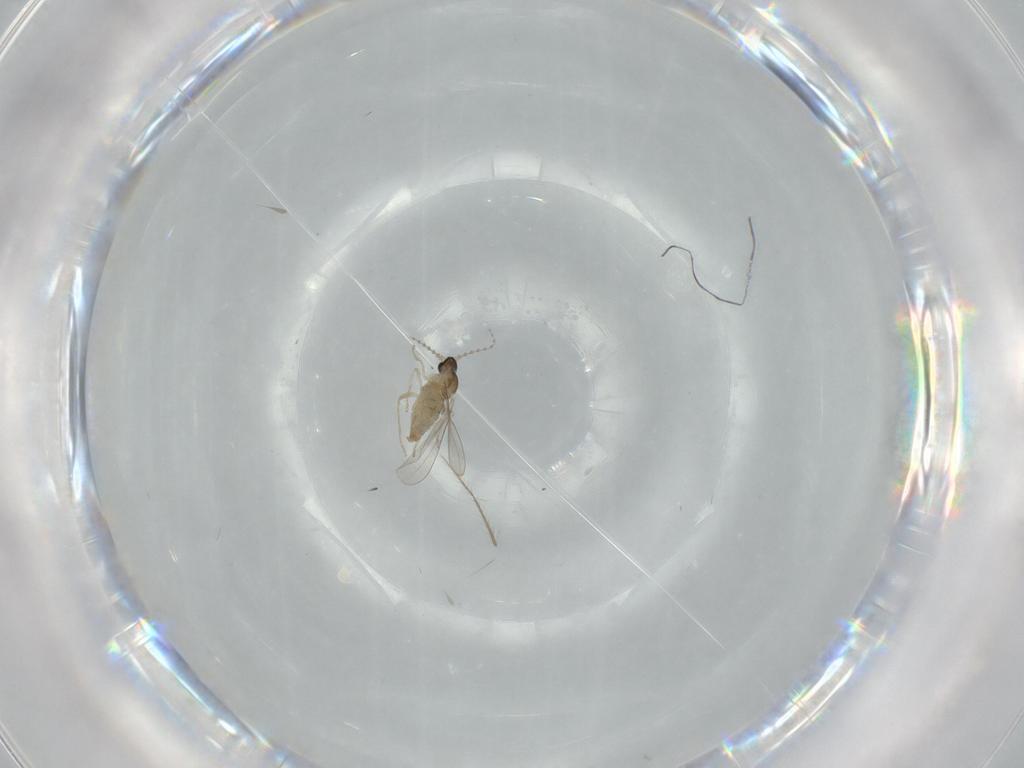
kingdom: Animalia
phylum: Arthropoda
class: Insecta
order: Diptera
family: Cecidomyiidae
